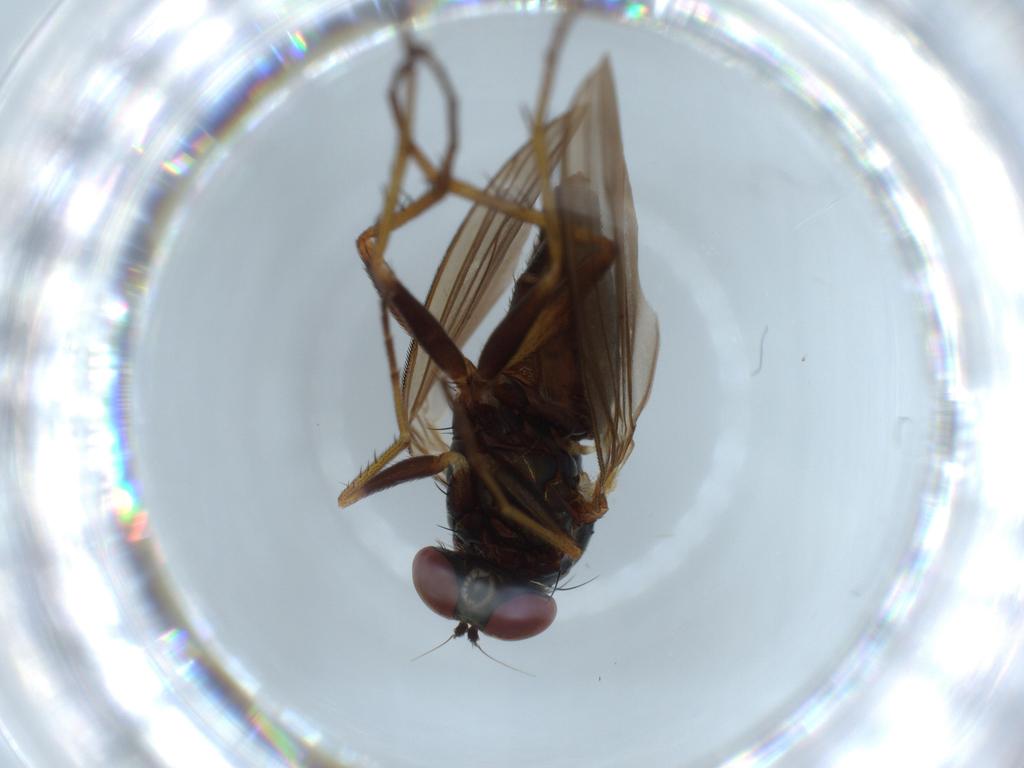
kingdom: Animalia
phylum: Arthropoda
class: Insecta
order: Diptera
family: Dolichopodidae
